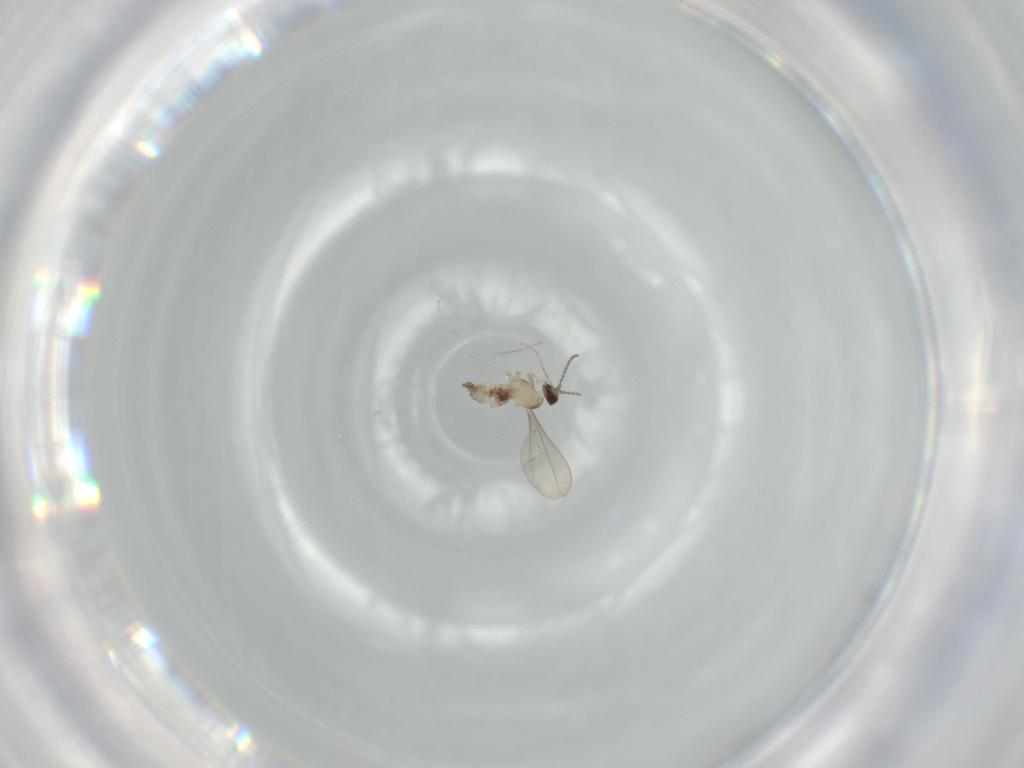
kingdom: Animalia
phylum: Arthropoda
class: Insecta
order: Diptera
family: Cecidomyiidae
